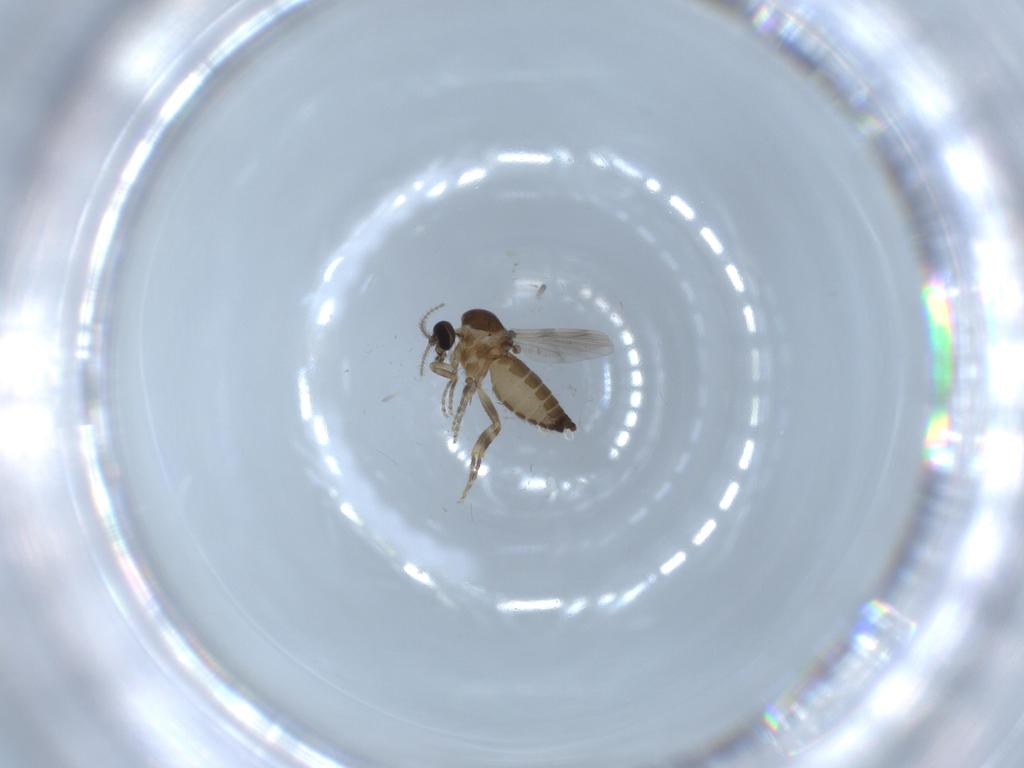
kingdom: Animalia
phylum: Arthropoda
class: Insecta
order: Diptera
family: Ceratopogonidae
